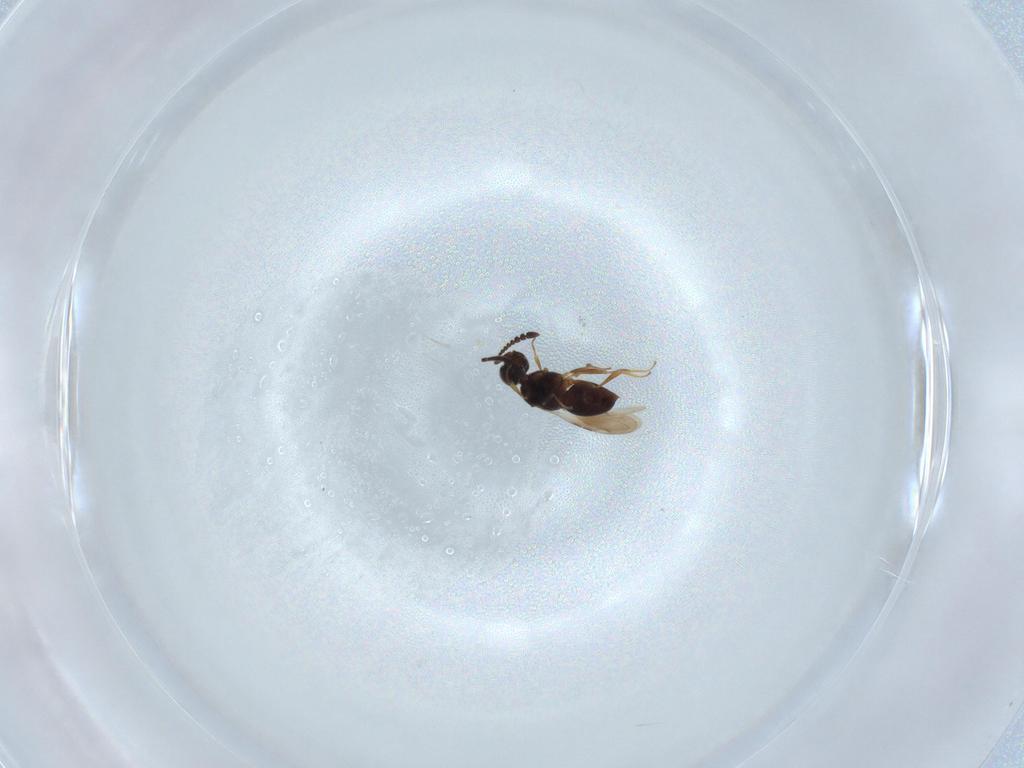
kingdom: Animalia
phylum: Arthropoda
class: Insecta
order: Hymenoptera
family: Ceraphronidae
